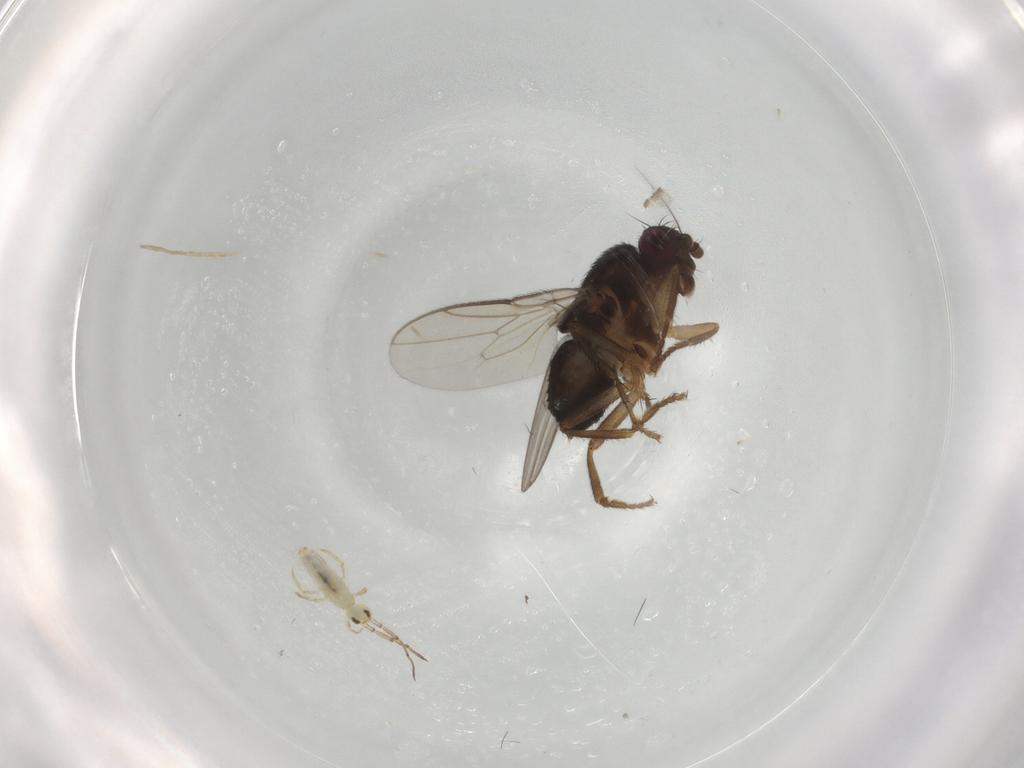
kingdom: Animalia
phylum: Arthropoda
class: Insecta
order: Diptera
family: Sphaeroceridae
